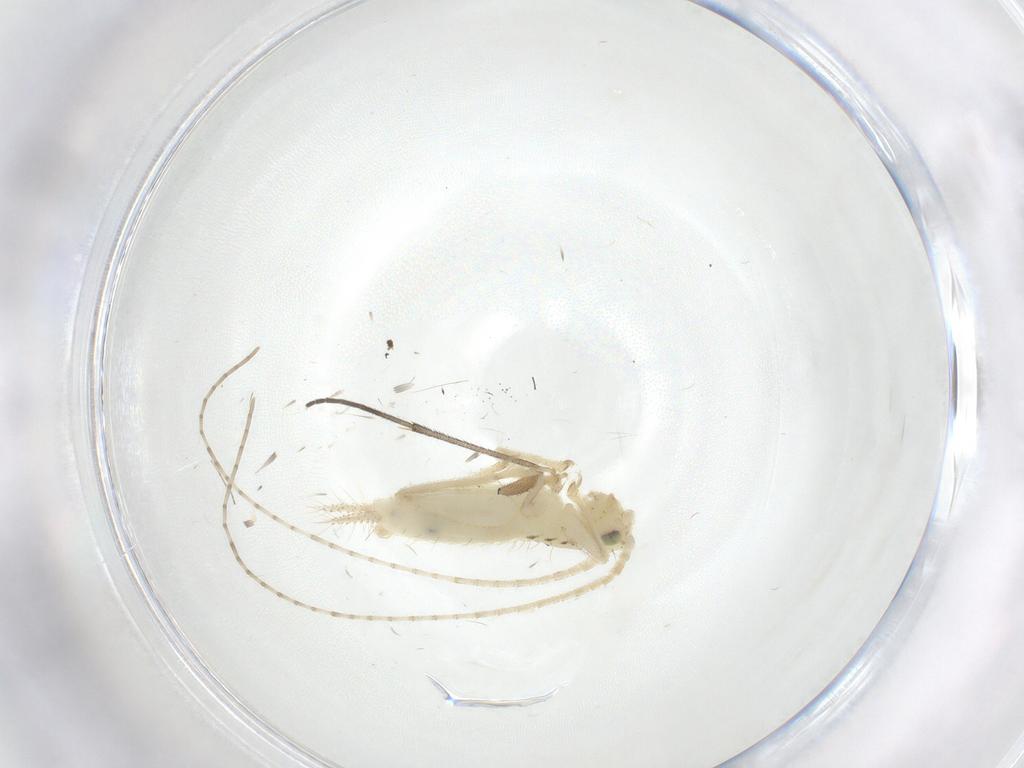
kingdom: Animalia
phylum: Arthropoda
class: Insecta
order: Orthoptera
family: Trigonidiidae
